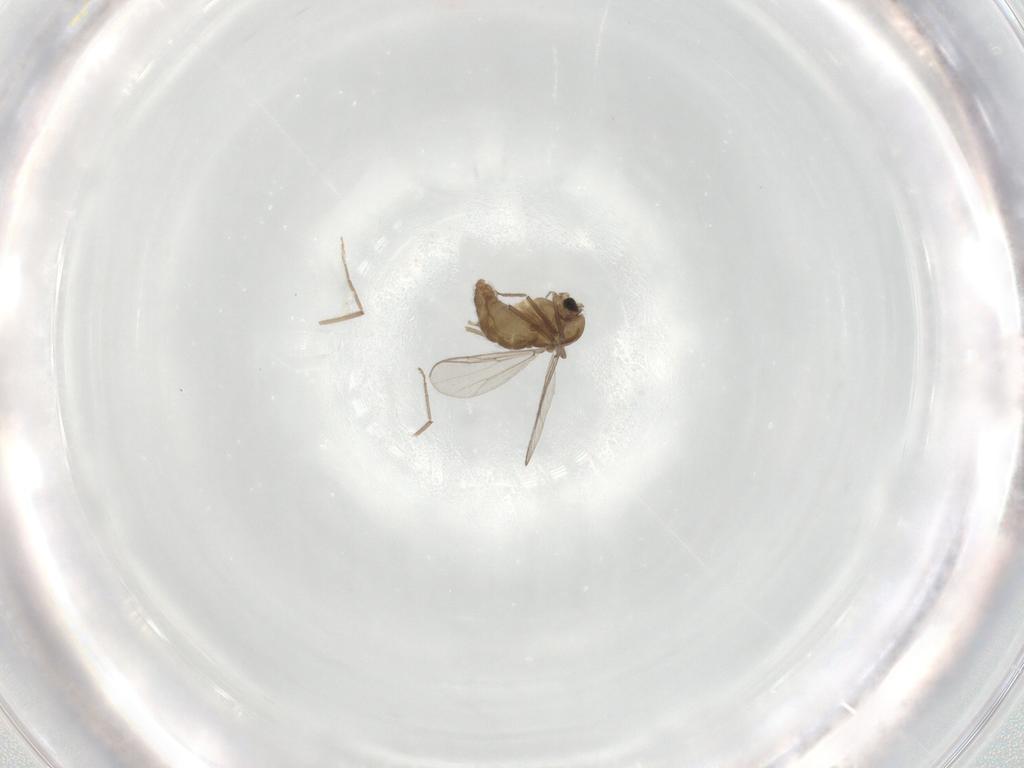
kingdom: Animalia
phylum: Arthropoda
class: Insecta
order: Diptera
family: Chironomidae
